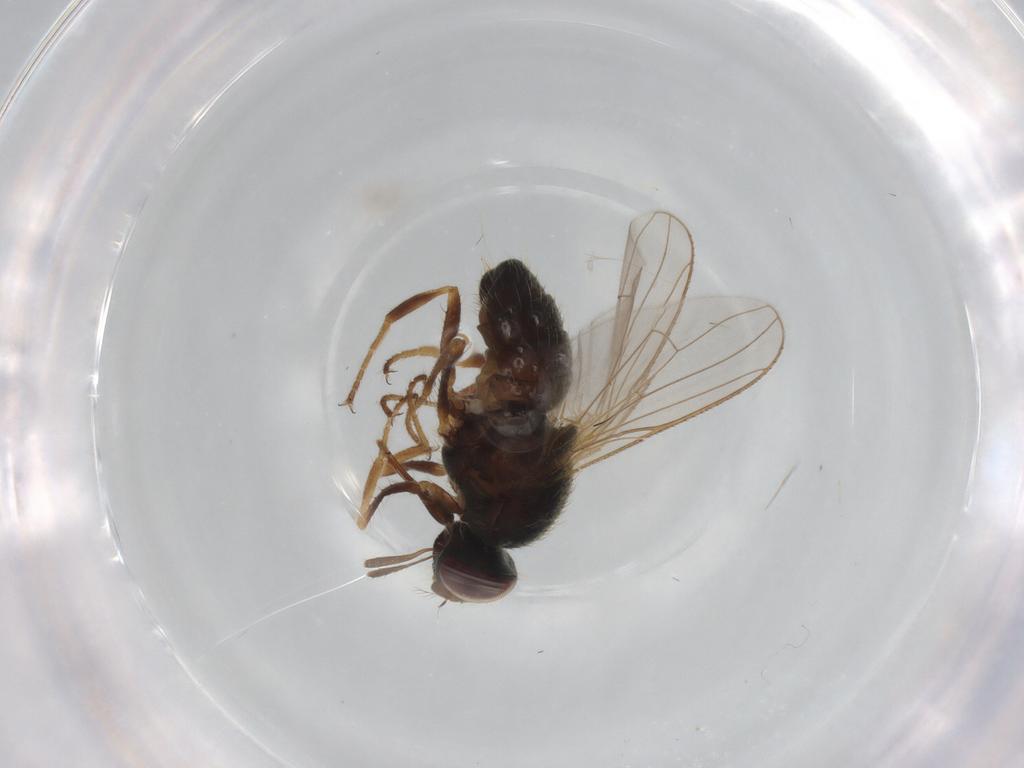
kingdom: Animalia
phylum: Arthropoda
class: Insecta
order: Diptera
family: Muscidae
